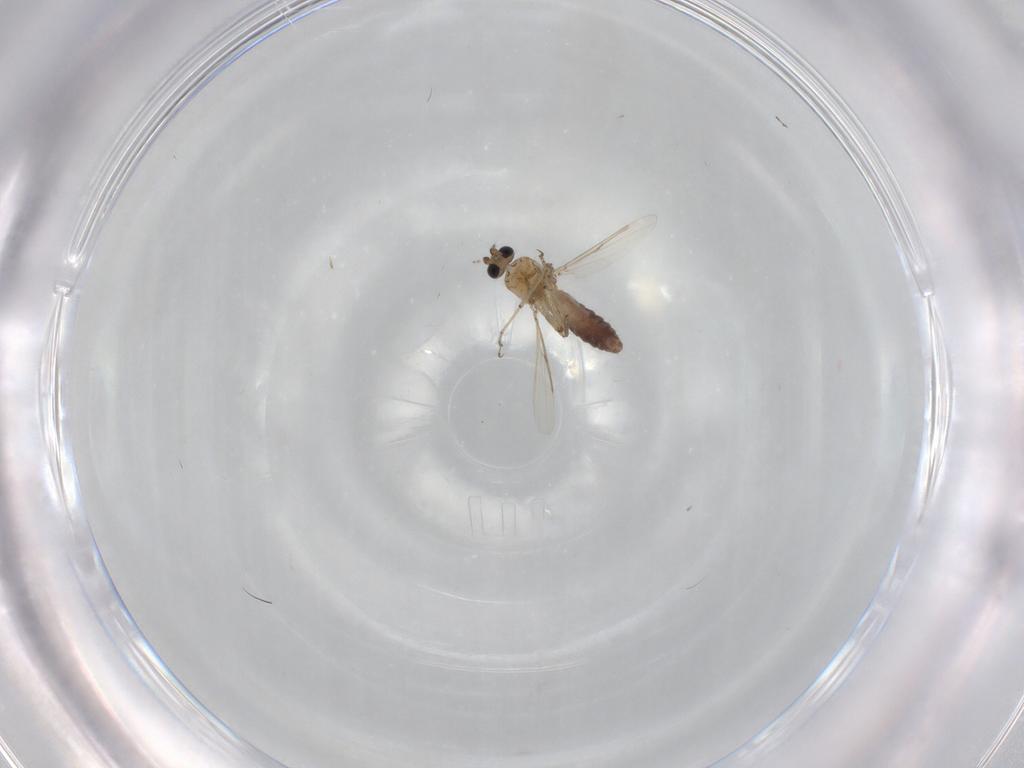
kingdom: Animalia
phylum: Arthropoda
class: Insecta
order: Diptera
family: Ceratopogonidae
